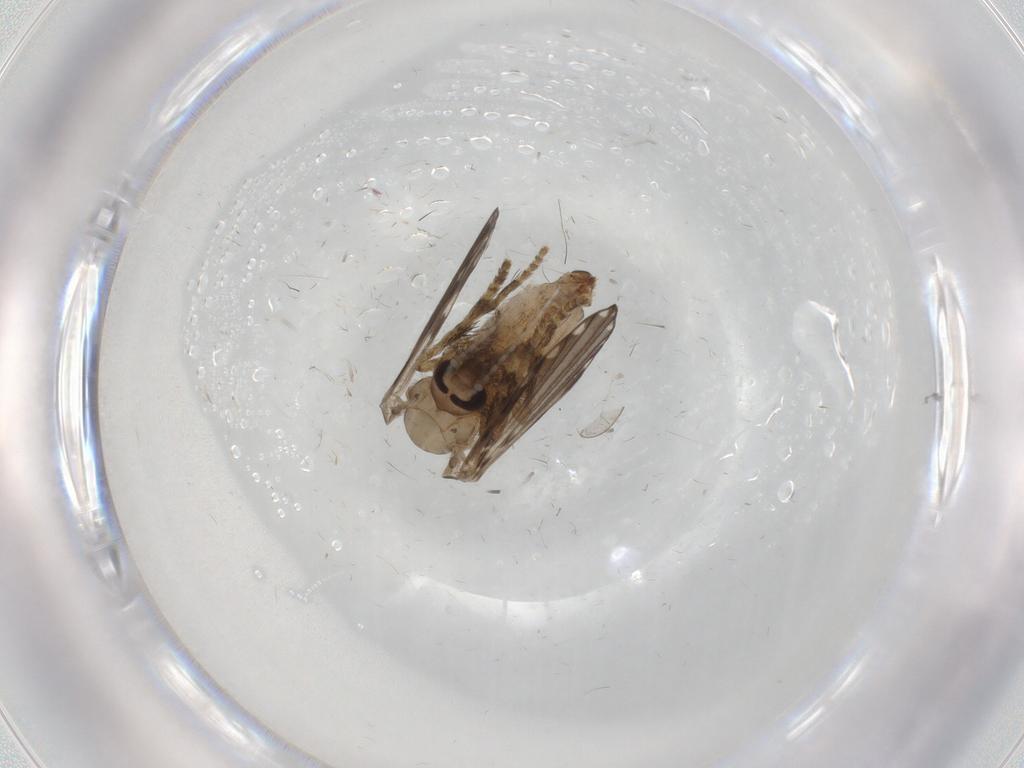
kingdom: Animalia
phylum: Arthropoda
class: Insecta
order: Diptera
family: Psychodidae
